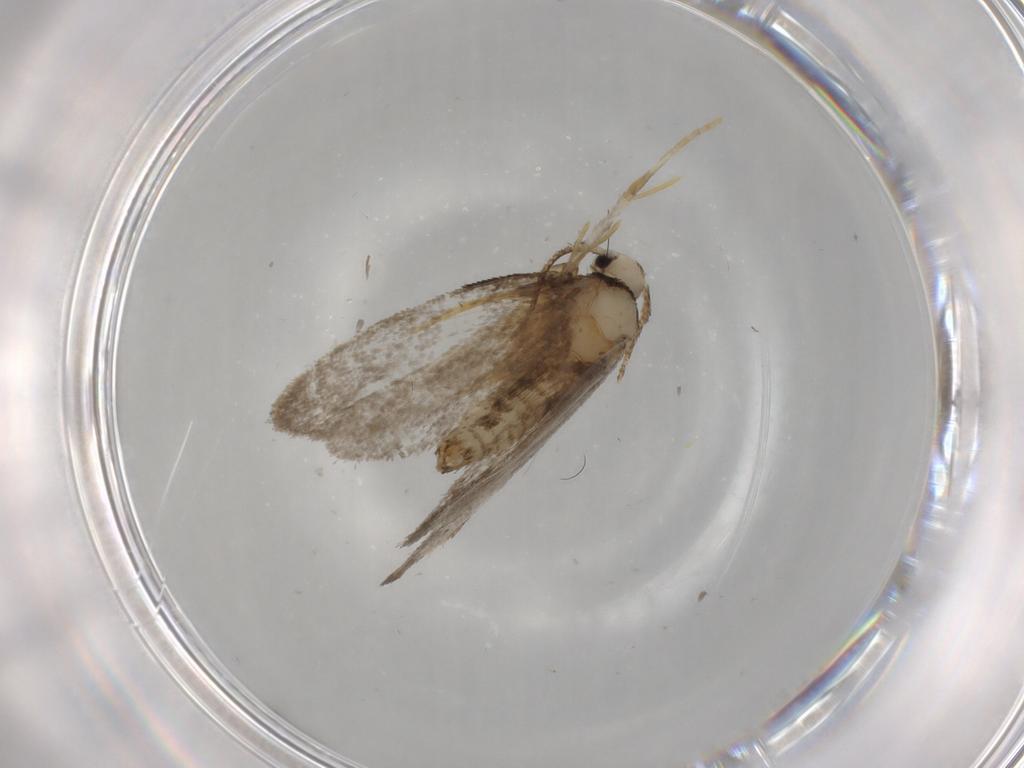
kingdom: Animalia
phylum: Arthropoda
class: Insecta
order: Lepidoptera
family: Psychidae
